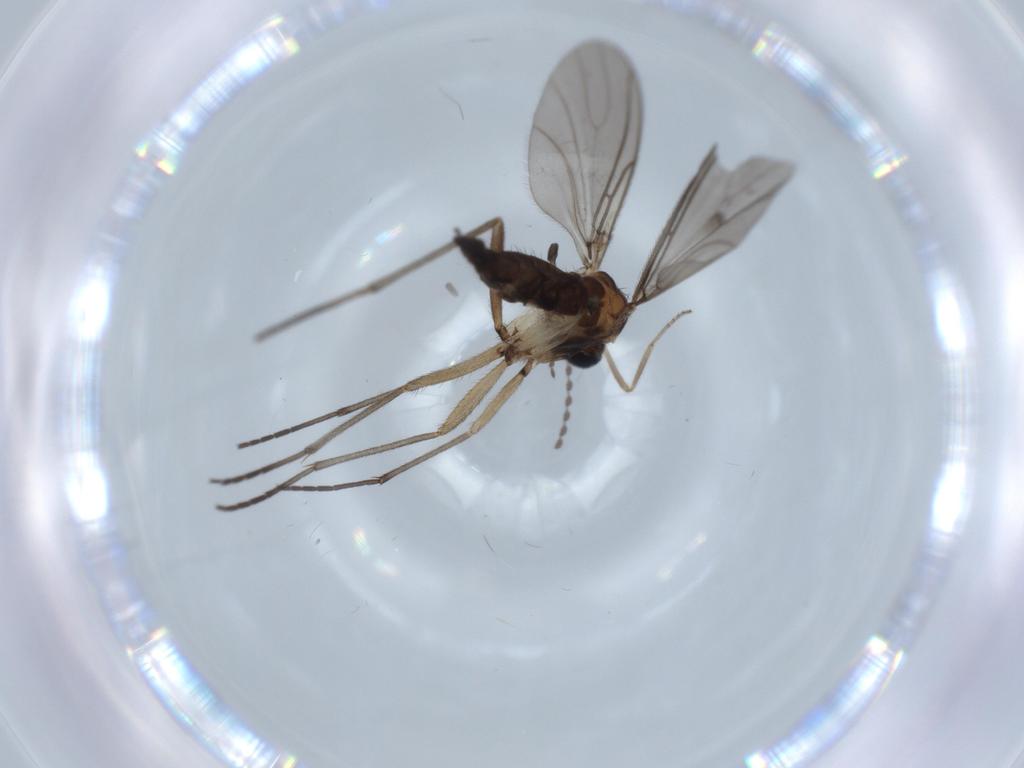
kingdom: Animalia
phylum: Arthropoda
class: Insecta
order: Diptera
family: Sciaridae
